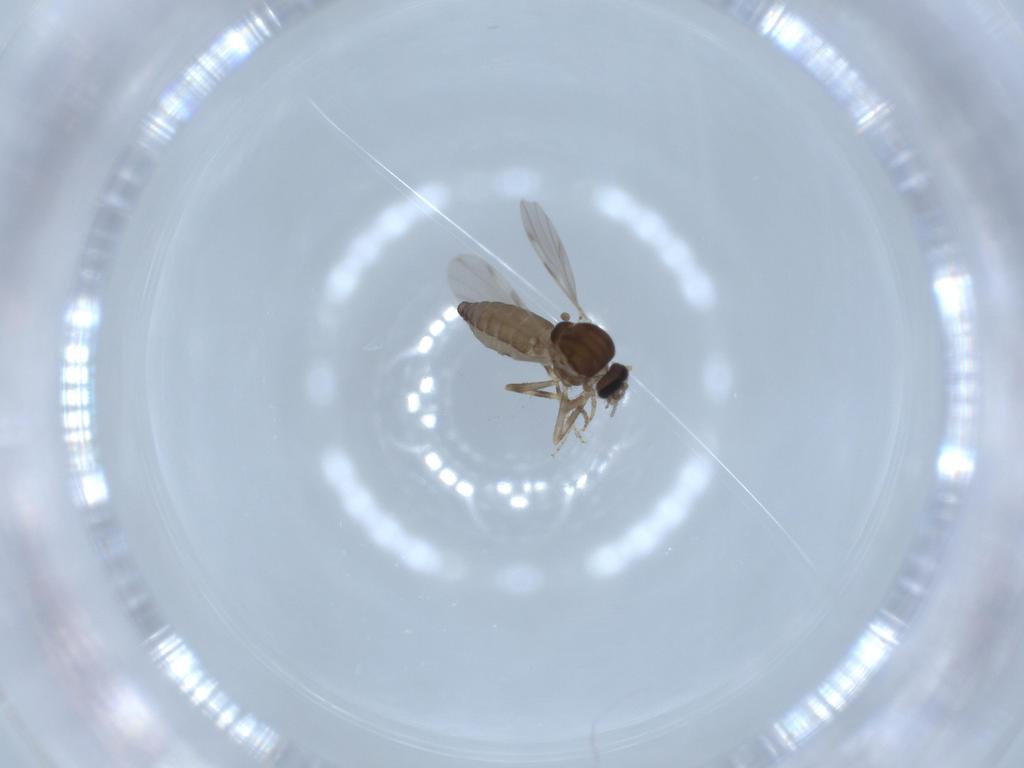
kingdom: Animalia
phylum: Arthropoda
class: Insecta
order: Diptera
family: Ceratopogonidae
